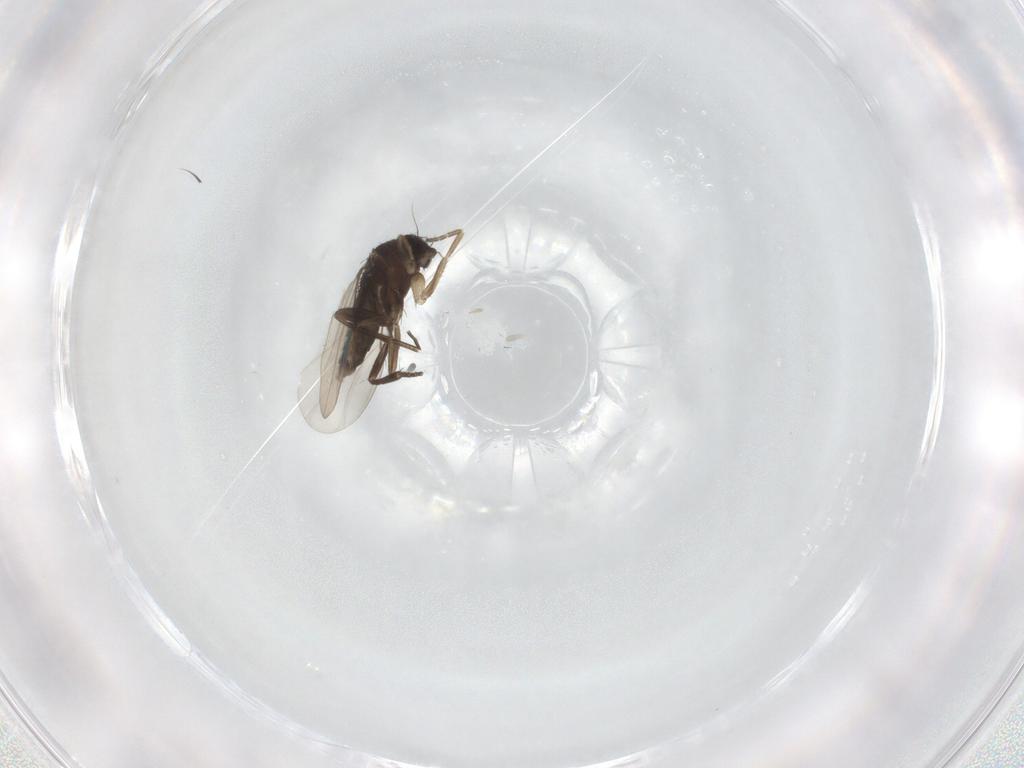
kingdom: Animalia
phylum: Arthropoda
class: Insecta
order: Diptera
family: Phoridae
